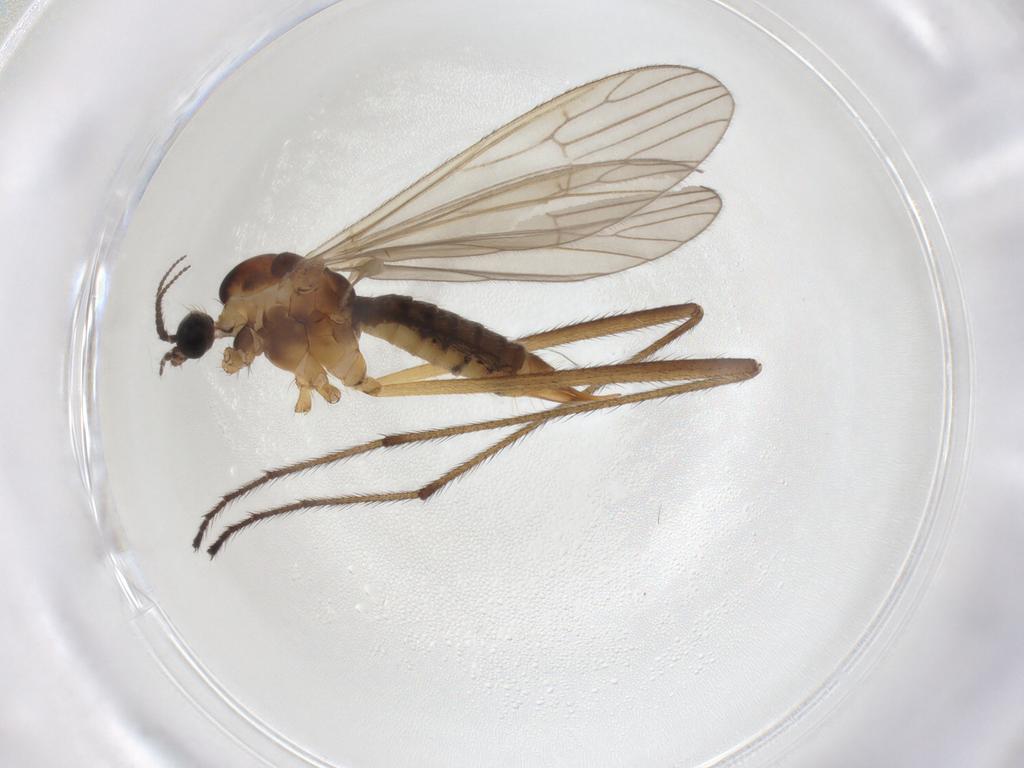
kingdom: Animalia
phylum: Arthropoda
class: Insecta
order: Diptera
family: Agromyzidae
